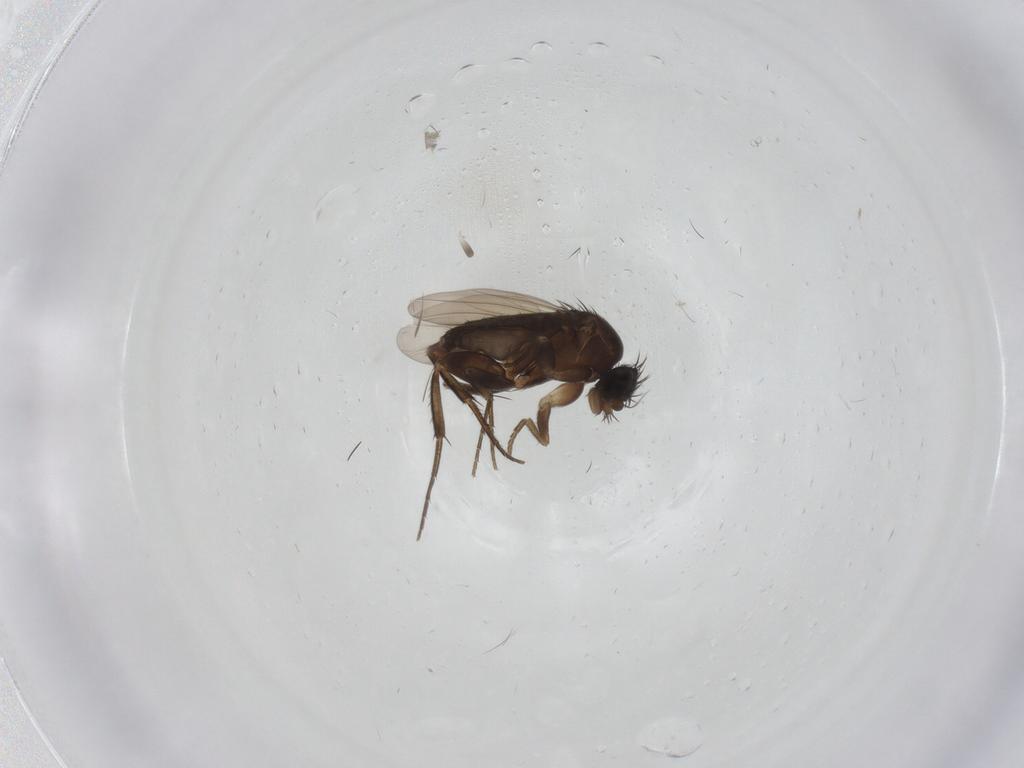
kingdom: Animalia
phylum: Arthropoda
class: Insecta
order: Diptera
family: Phoridae
